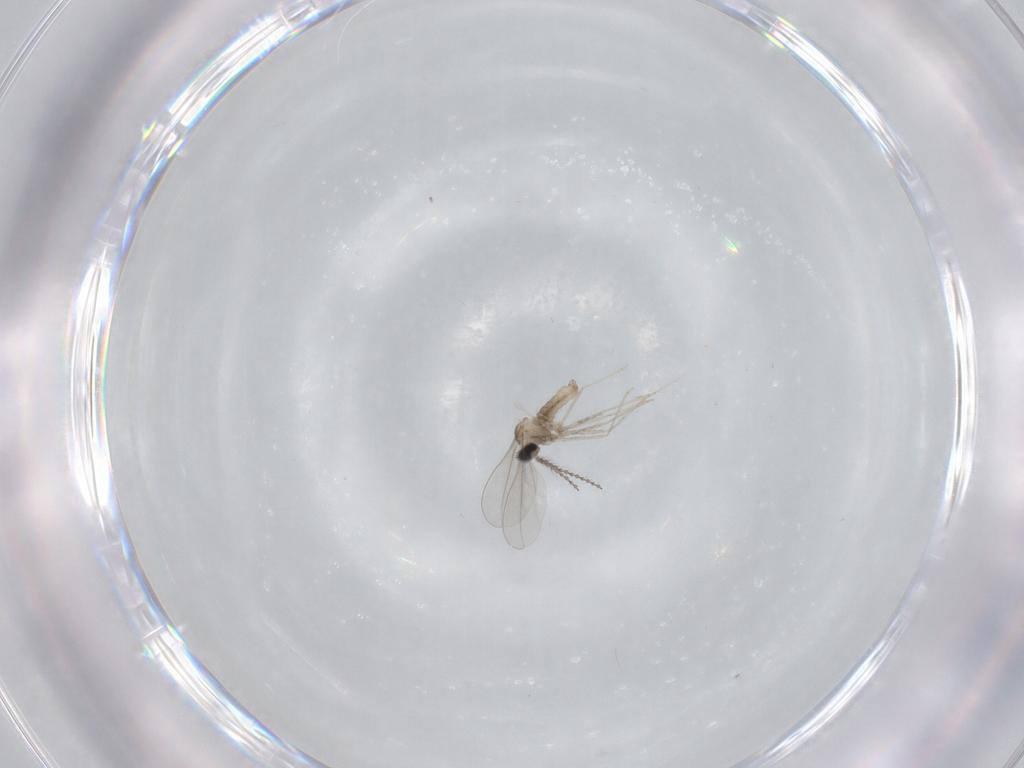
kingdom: Animalia
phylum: Arthropoda
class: Insecta
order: Diptera
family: Cecidomyiidae
